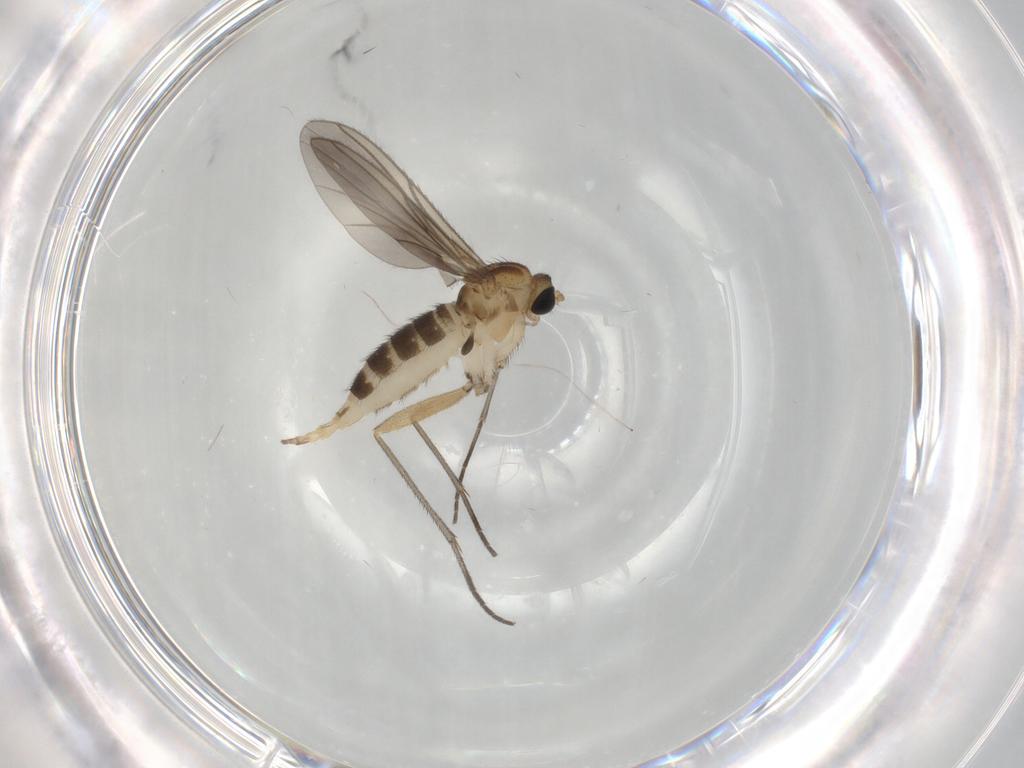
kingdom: Animalia
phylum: Arthropoda
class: Insecta
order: Diptera
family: Sciaridae
